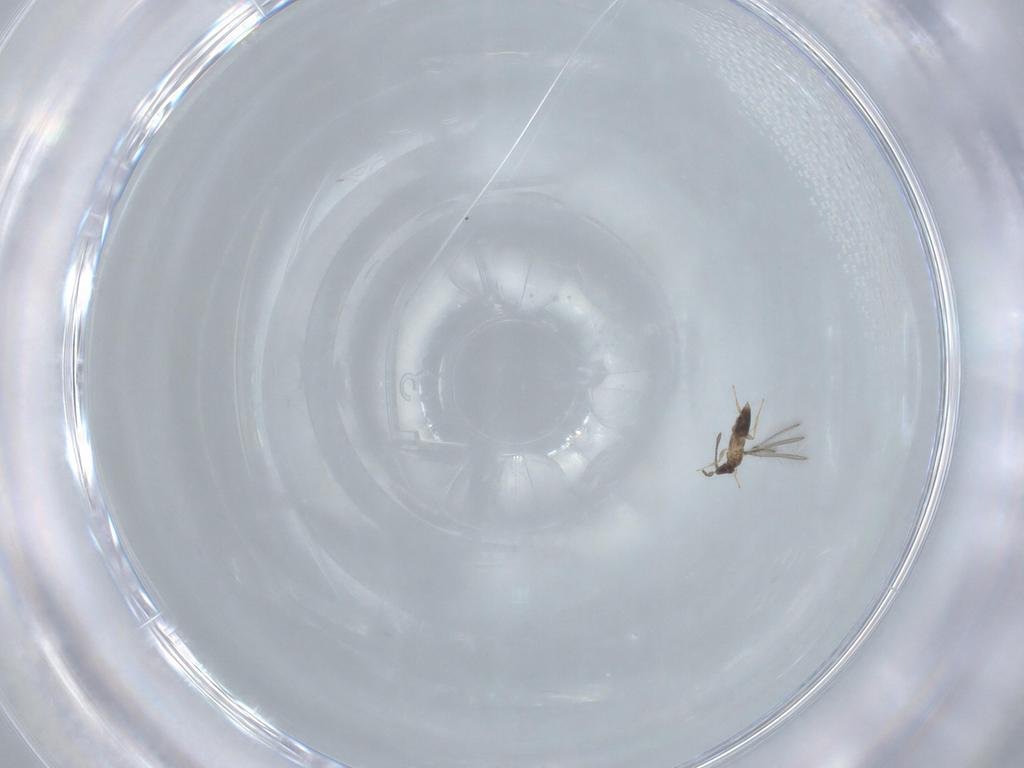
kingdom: Animalia
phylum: Arthropoda
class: Insecta
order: Hymenoptera
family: Mymaridae
